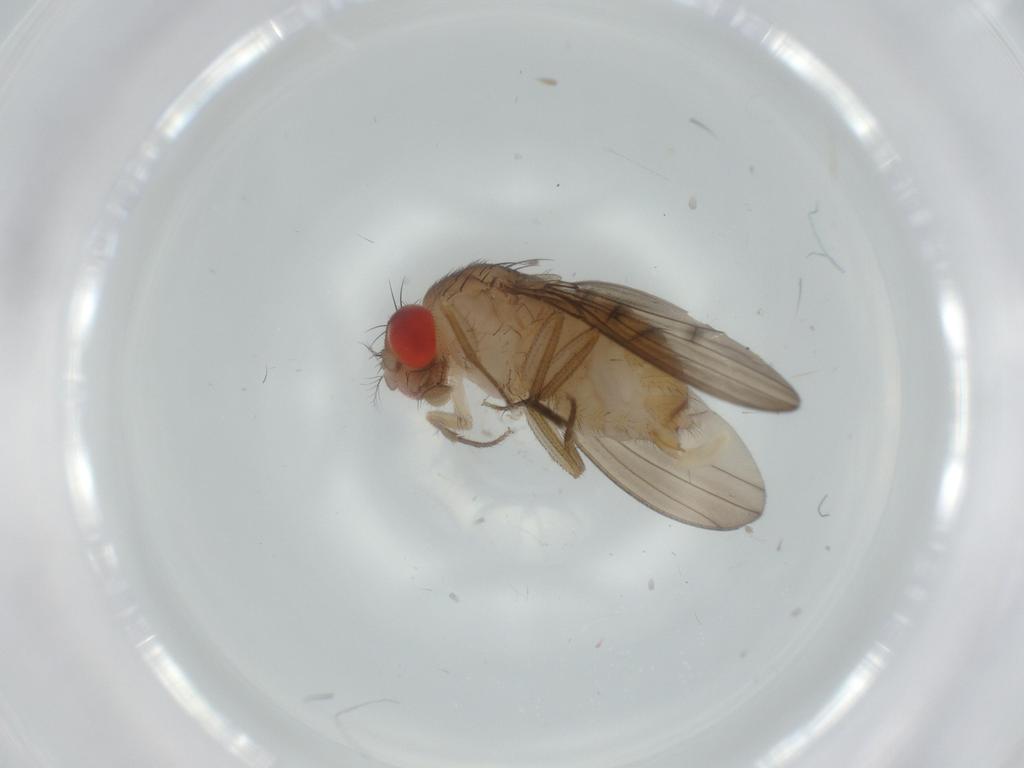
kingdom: Animalia
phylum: Arthropoda
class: Insecta
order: Diptera
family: Drosophilidae
